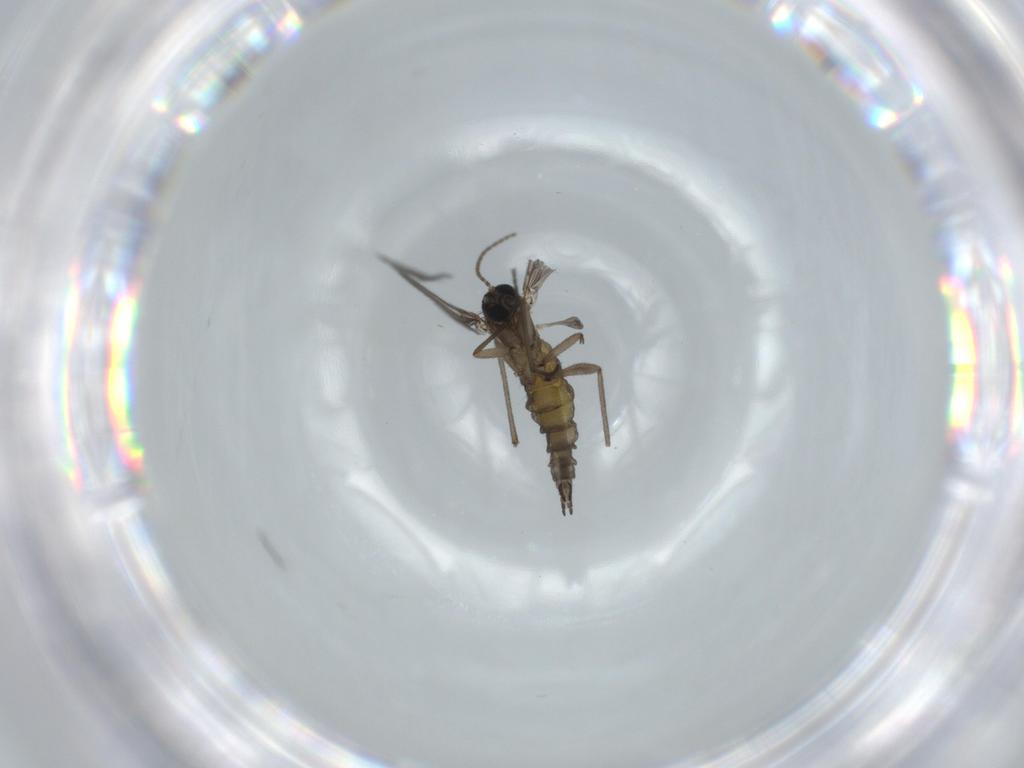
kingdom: Animalia
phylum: Arthropoda
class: Insecta
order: Diptera
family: Sciaridae
